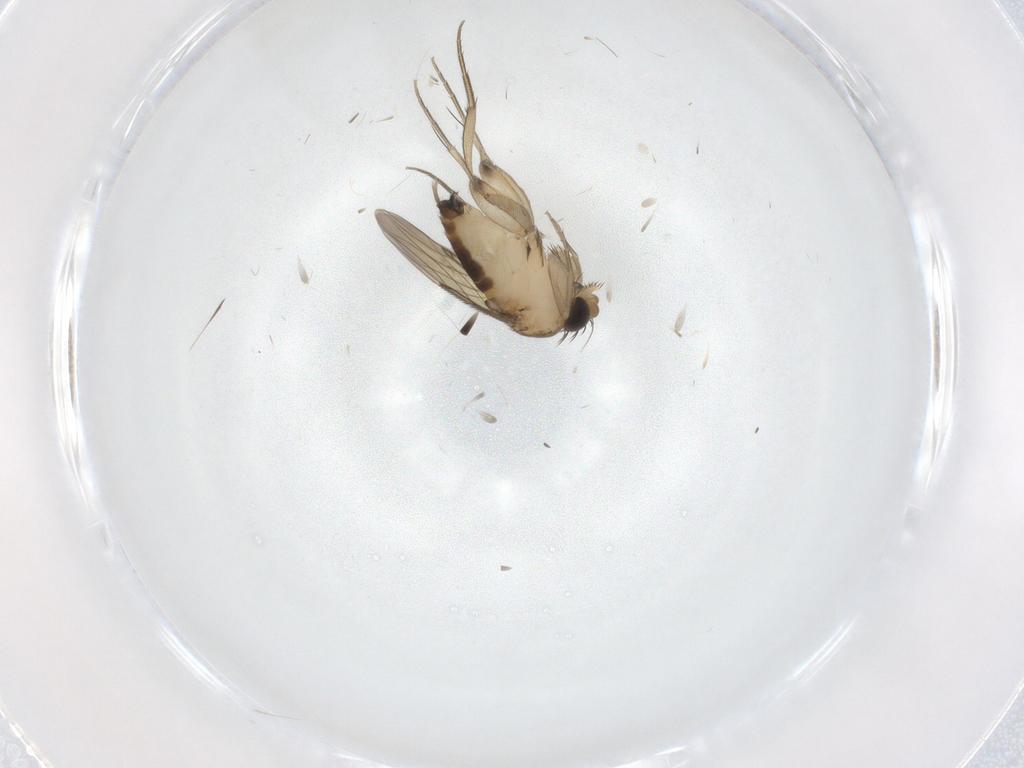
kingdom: Animalia
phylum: Arthropoda
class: Insecta
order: Diptera
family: Phoridae
